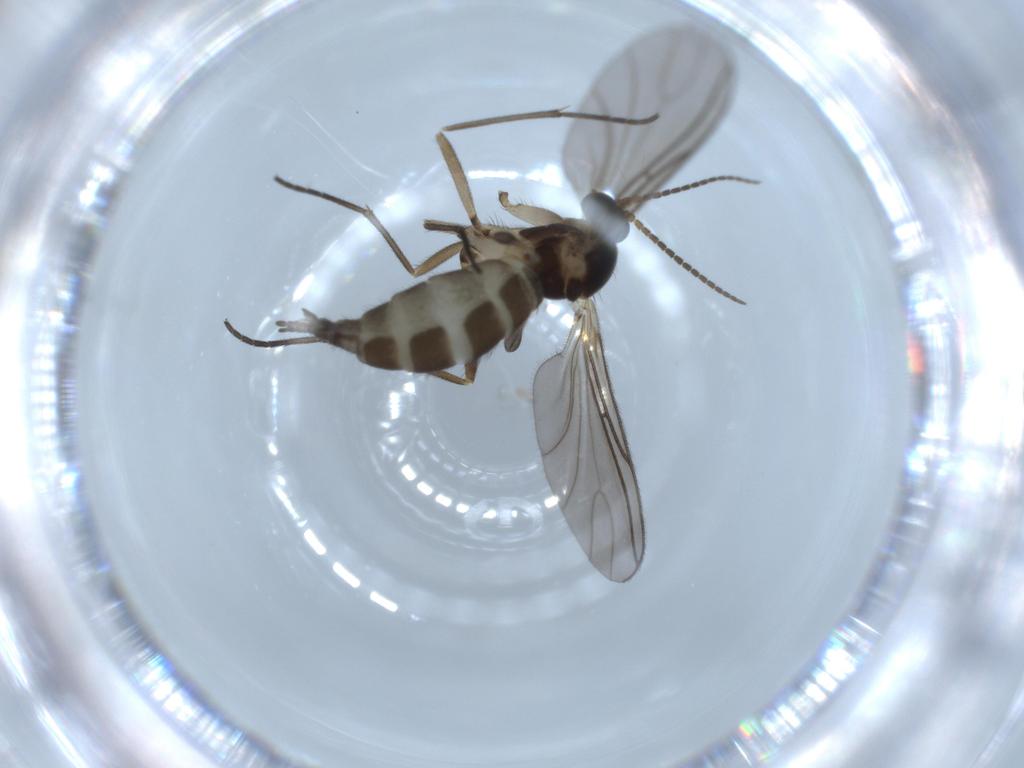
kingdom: Animalia
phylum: Arthropoda
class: Insecta
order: Diptera
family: Sciaridae
